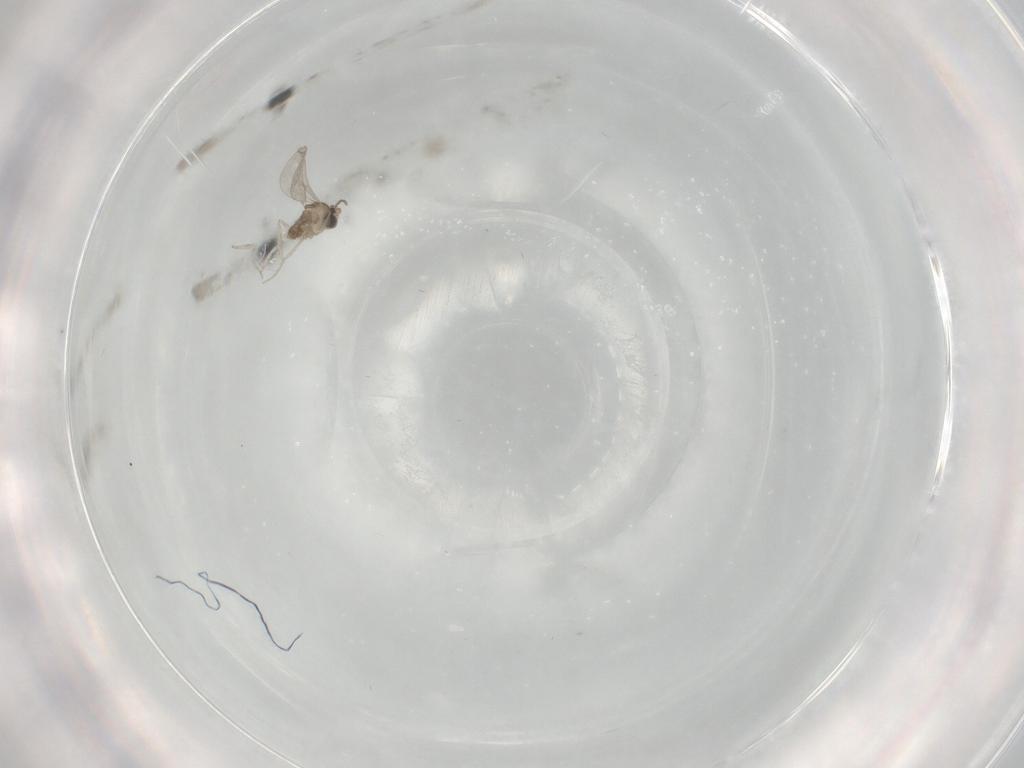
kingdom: Animalia
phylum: Arthropoda
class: Insecta
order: Diptera
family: Cecidomyiidae
